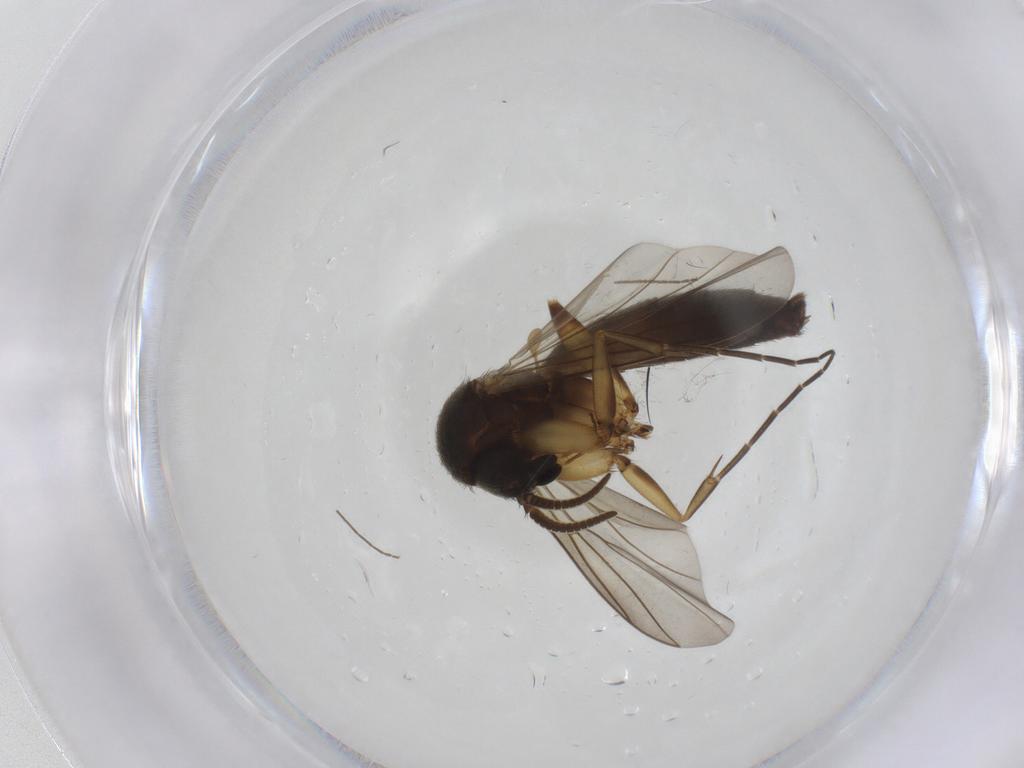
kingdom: Animalia
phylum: Arthropoda
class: Insecta
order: Diptera
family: Mycetophilidae
